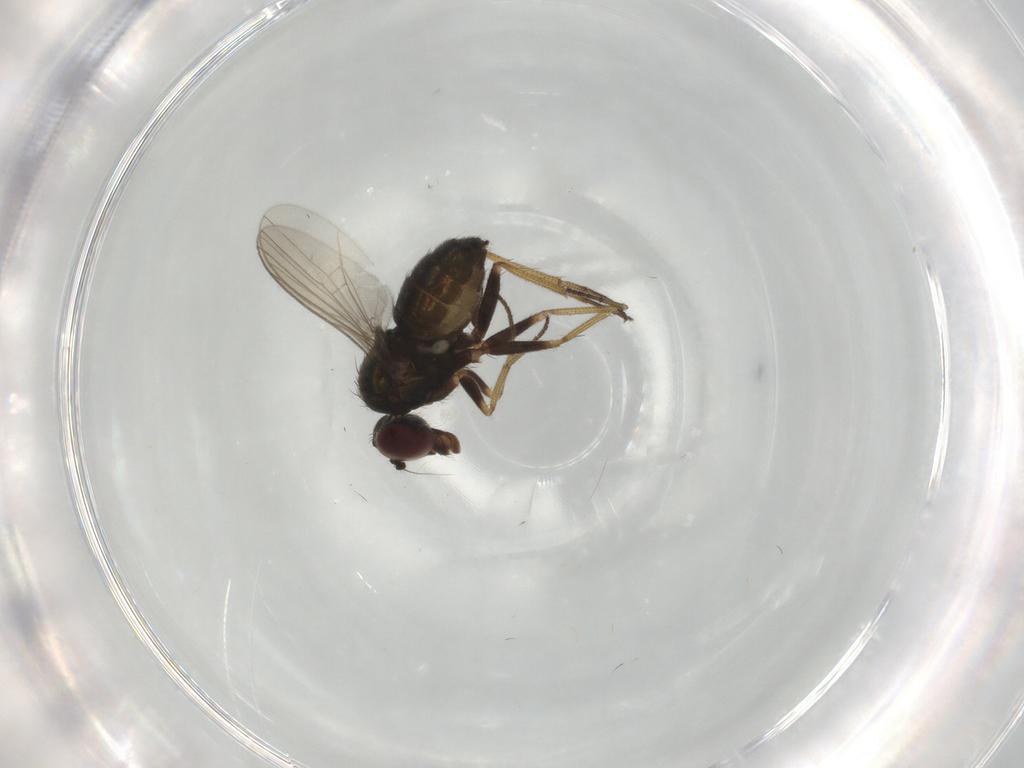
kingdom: Animalia
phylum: Arthropoda
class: Insecta
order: Diptera
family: Dolichopodidae
